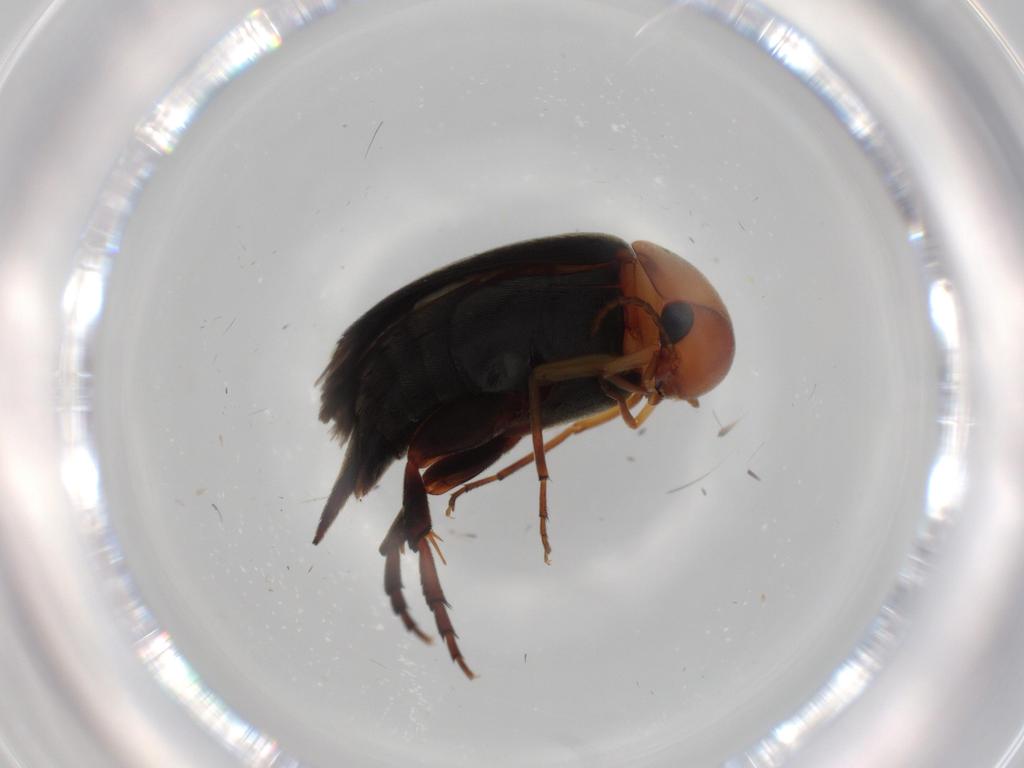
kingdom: Animalia
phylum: Arthropoda
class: Insecta
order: Coleoptera
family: Mordellidae
